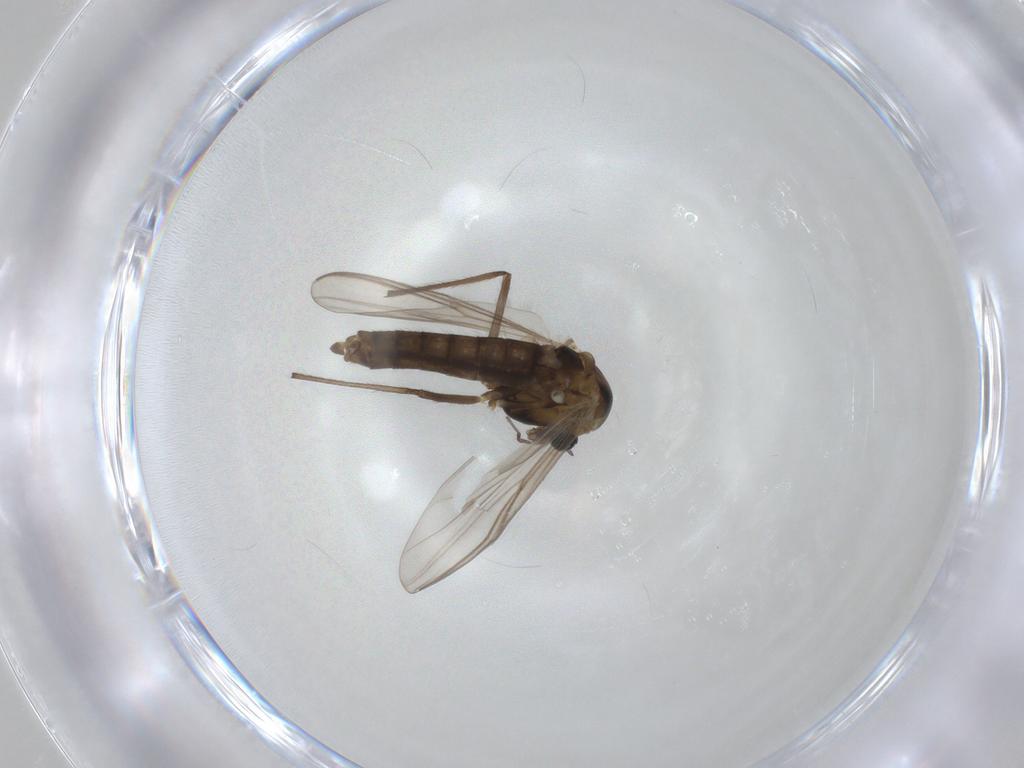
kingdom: Animalia
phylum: Arthropoda
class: Insecta
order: Diptera
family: Chironomidae
